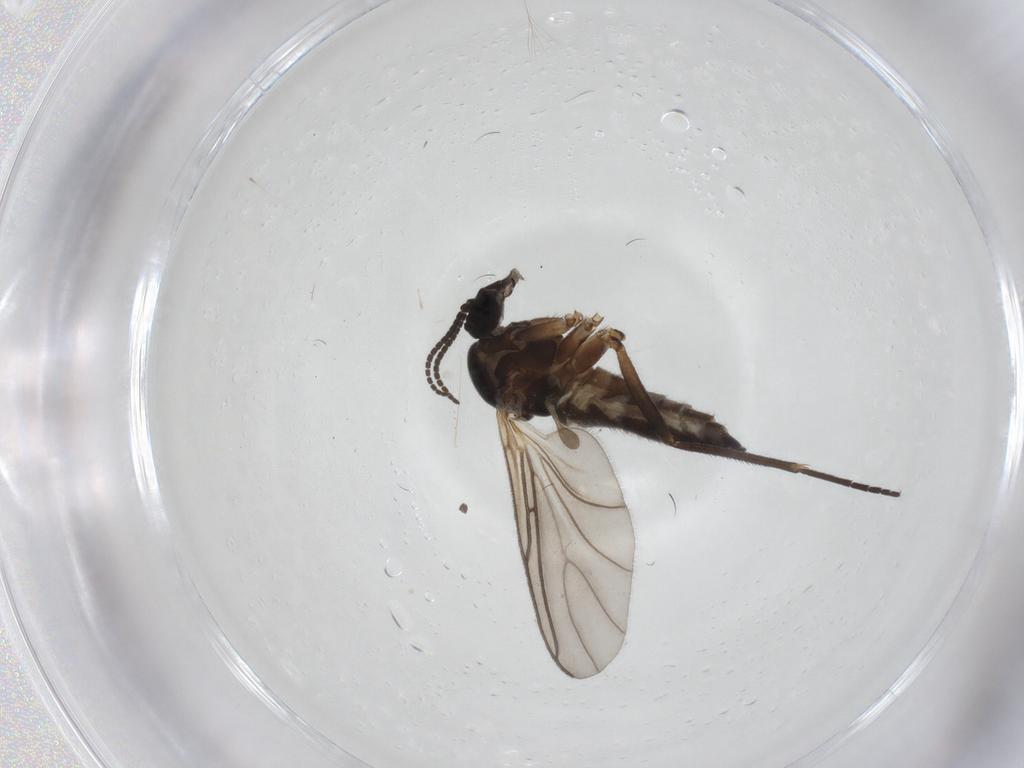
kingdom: Animalia
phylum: Arthropoda
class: Insecta
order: Diptera
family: Sciaridae
